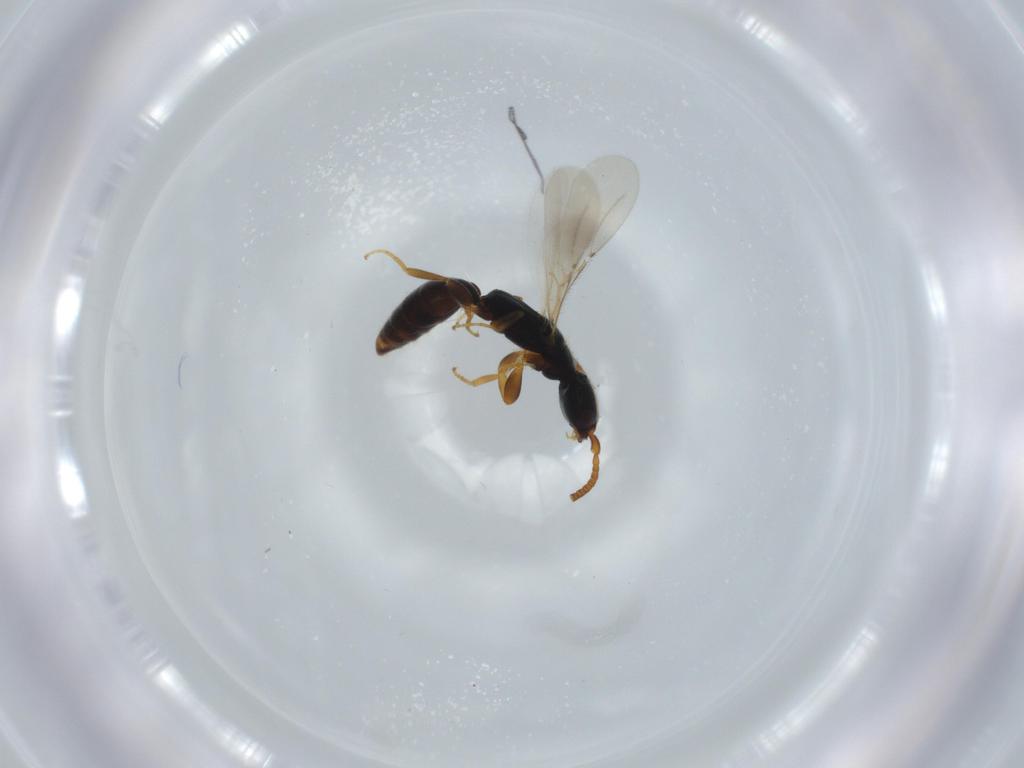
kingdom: Animalia
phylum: Arthropoda
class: Insecta
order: Hymenoptera
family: Bethylidae
